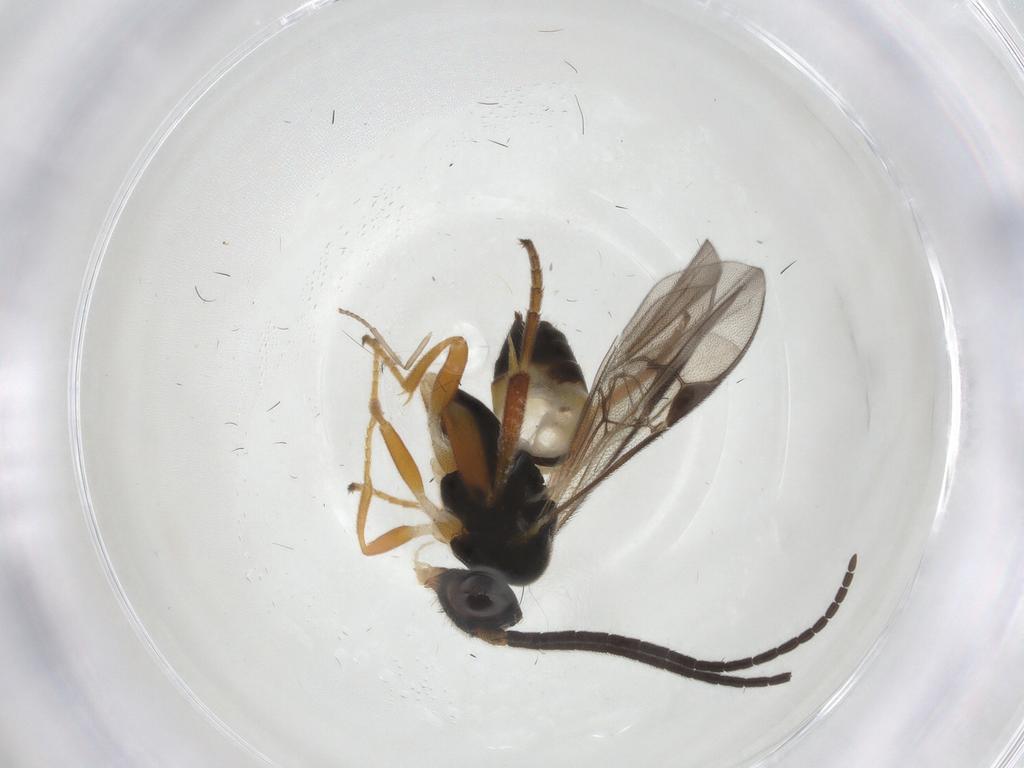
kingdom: Animalia
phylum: Arthropoda
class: Insecta
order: Hymenoptera
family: Braconidae
